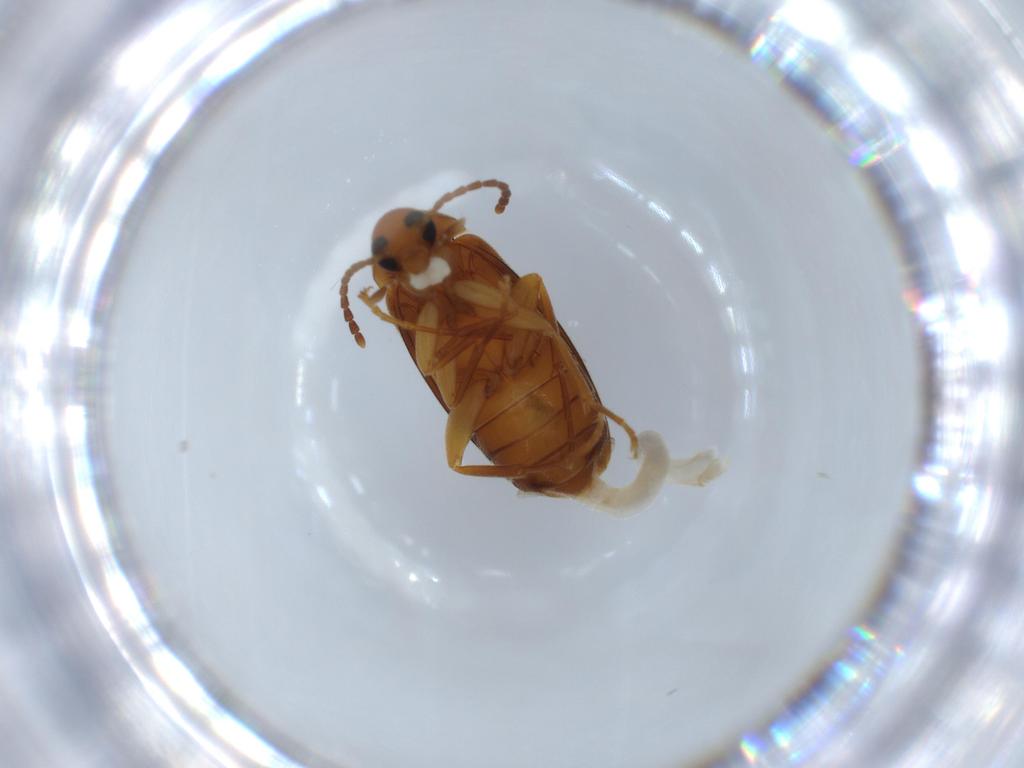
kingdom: Animalia
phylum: Arthropoda
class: Insecta
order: Coleoptera
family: Scraptiidae
